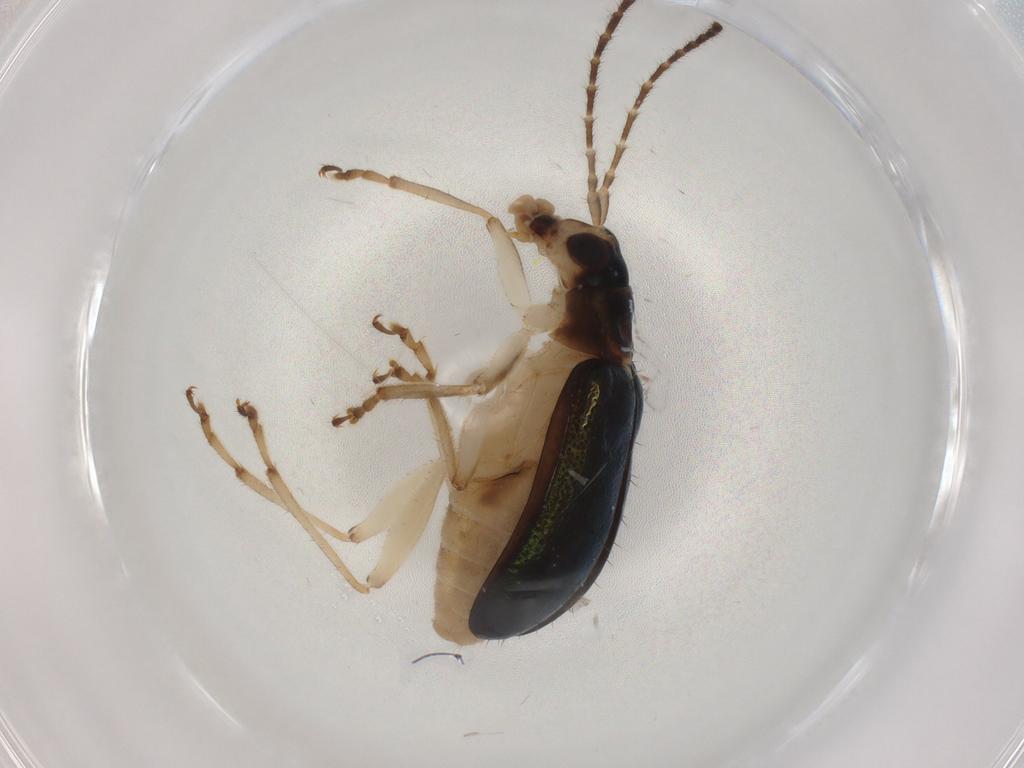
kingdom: Animalia
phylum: Arthropoda
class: Insecta
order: Coleoptera
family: Chrysomelidae
